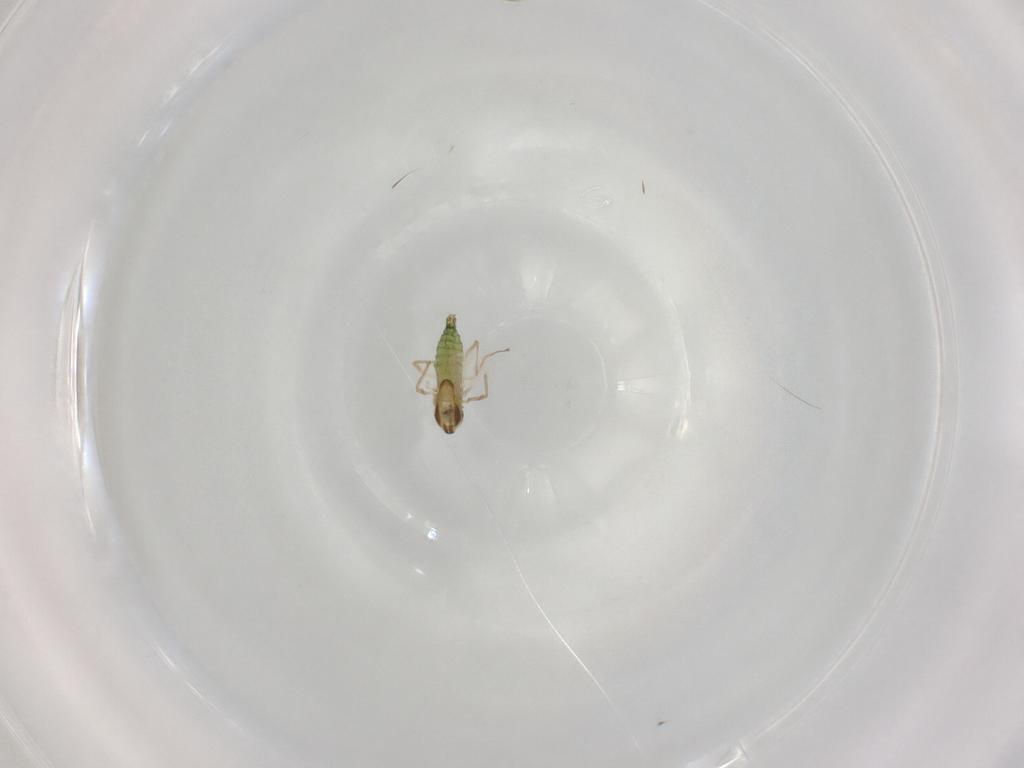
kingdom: Animalia
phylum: Arthropoda
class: Insecta
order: Diptera
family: Chironomidae
